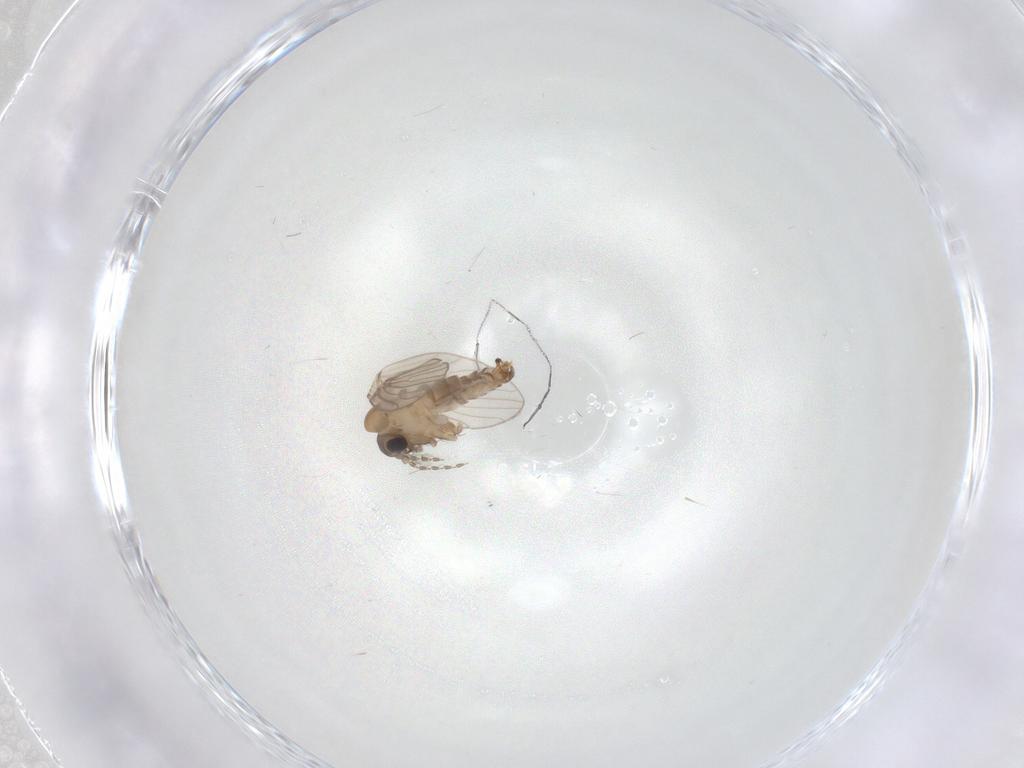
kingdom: Animalia
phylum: Arthropoda
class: Insecta
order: Diptera
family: Psychodidae
